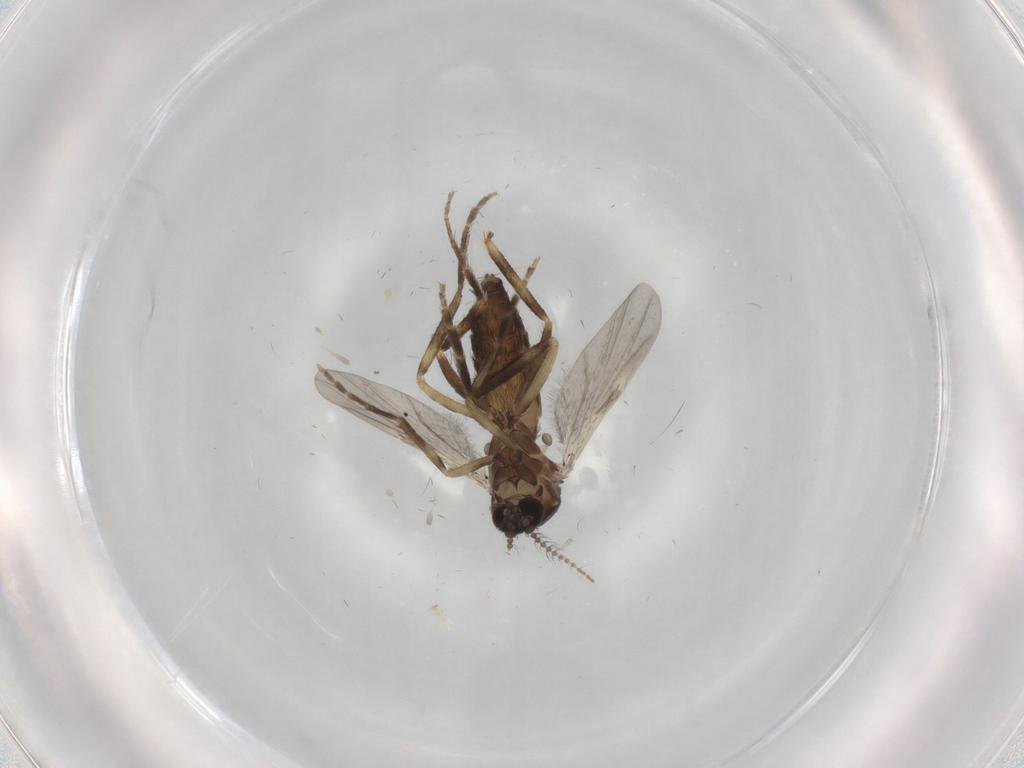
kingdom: Animalia
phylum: Arthropoda
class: Insecta
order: Diptera
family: Ceratopogonidae
